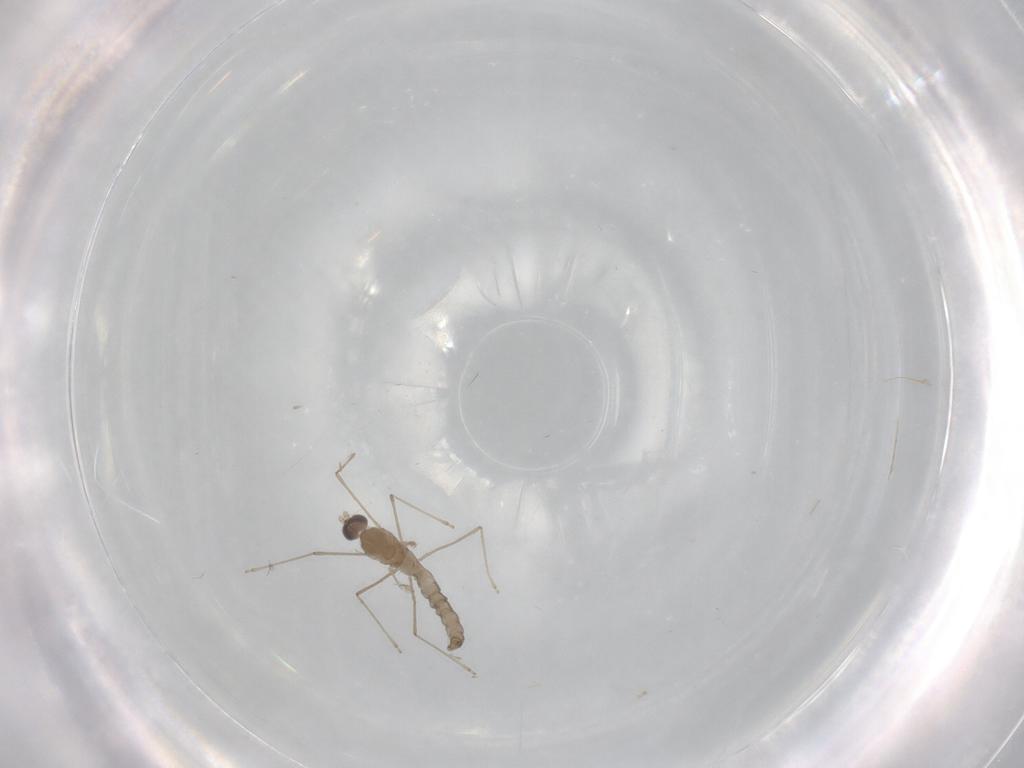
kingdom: Animalia
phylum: Arthropoda
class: Insecta
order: Diptera
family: Cecidomyiidae
